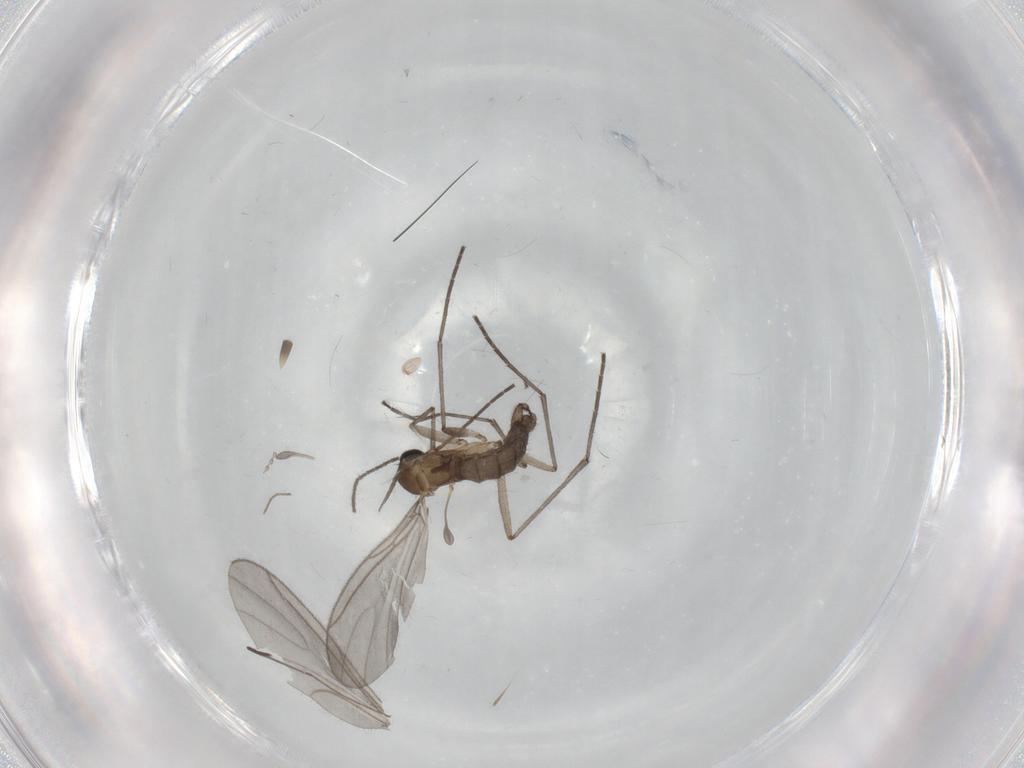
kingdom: Animalia
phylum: Arthropoda
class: Insecta
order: Diptera
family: Sciaridae
